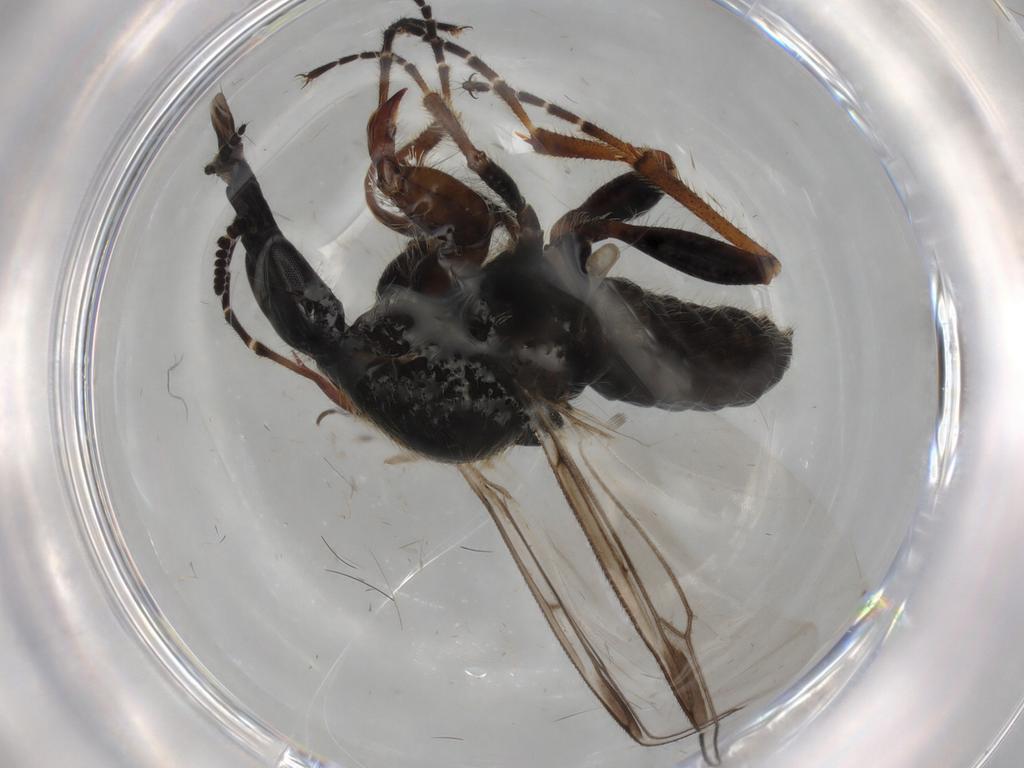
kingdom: Animalia
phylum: Arthropoda
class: Insecta
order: Diptera
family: Bibionidae
